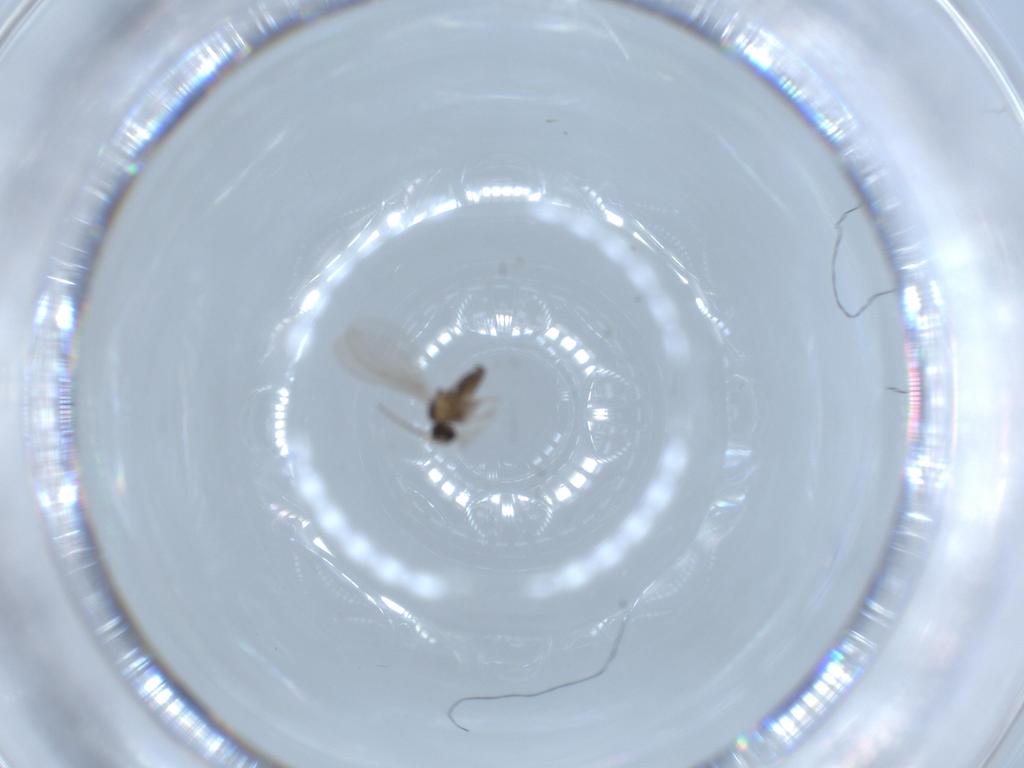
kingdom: Animalia
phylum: Arthropoda
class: Insecta
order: Diptera
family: Cecidomyiidae
